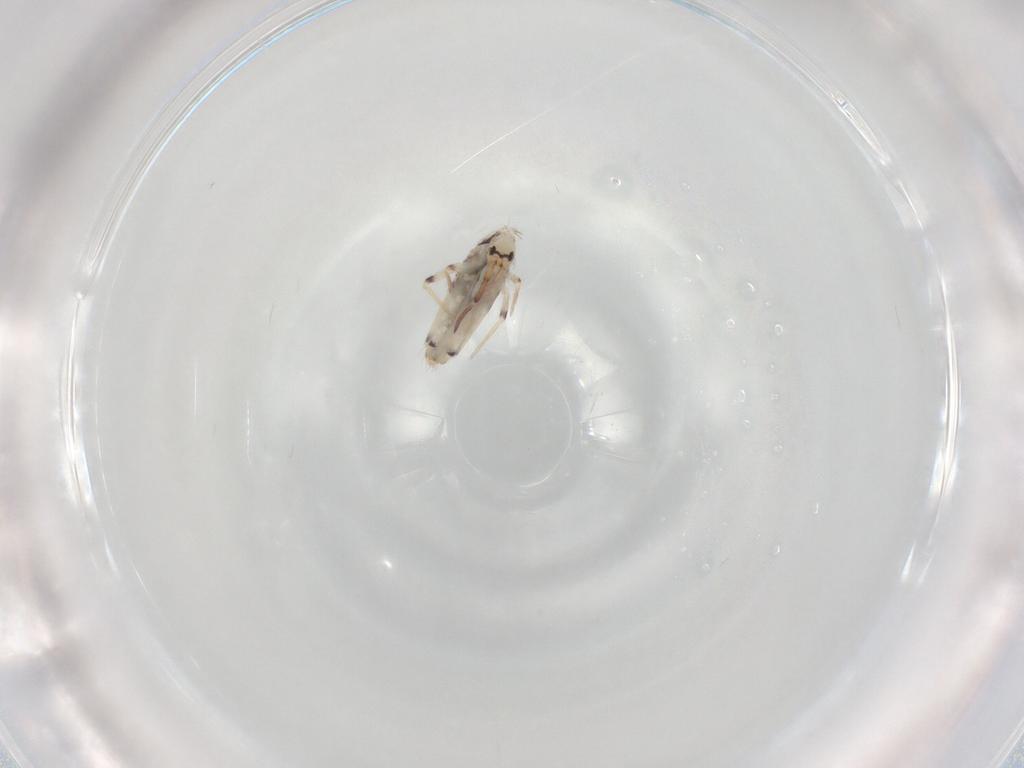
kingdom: Animalia
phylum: Arthropoda
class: Collembola
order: Entomobryomorpha
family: Entomobryidae
